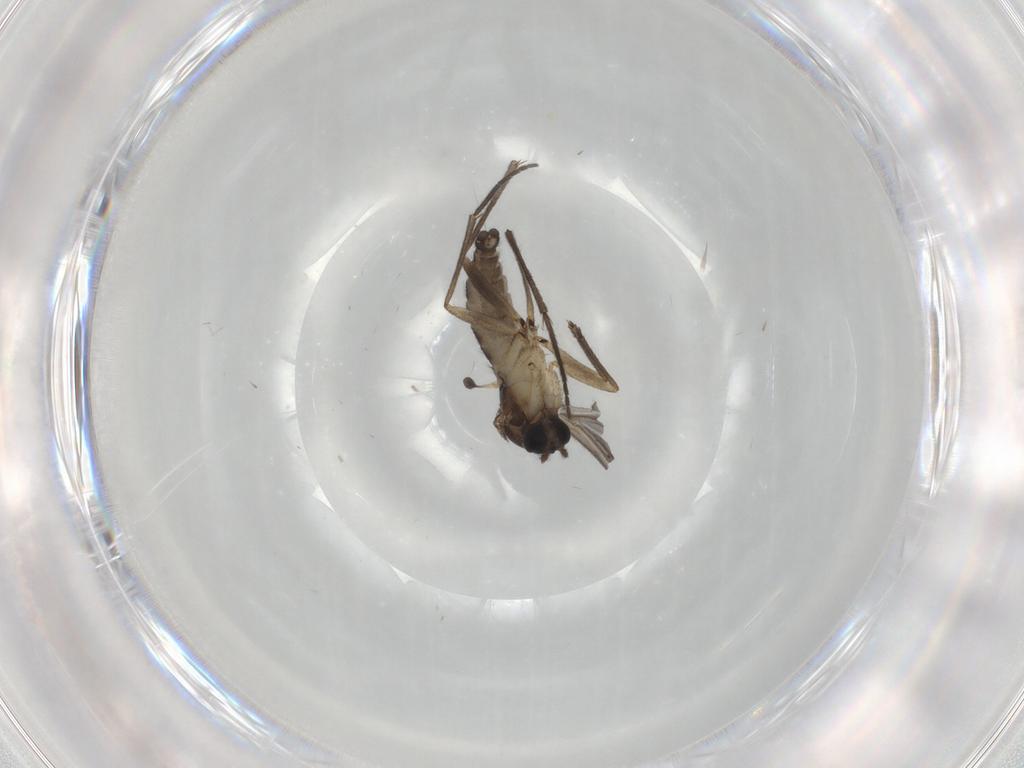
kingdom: Animalia
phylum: Arthropoda
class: Insecta
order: Diptera
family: Sciaridae
